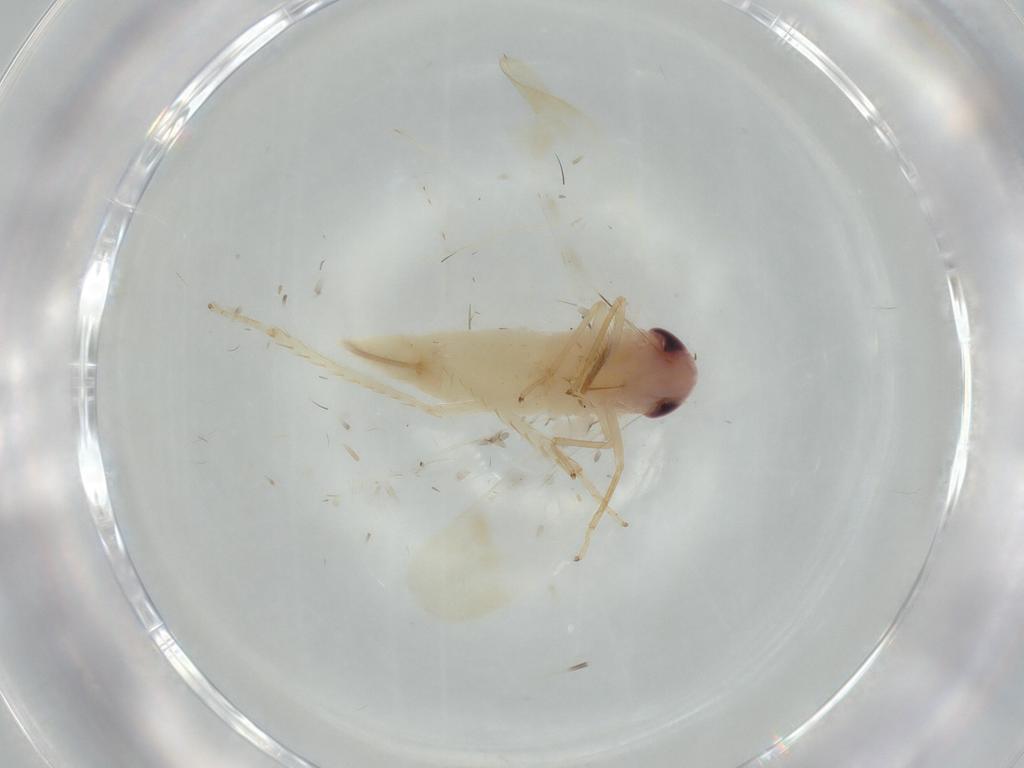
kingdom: Animalia
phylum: Arthropoda
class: Insecta
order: Hemiptera
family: Cicadellidae
